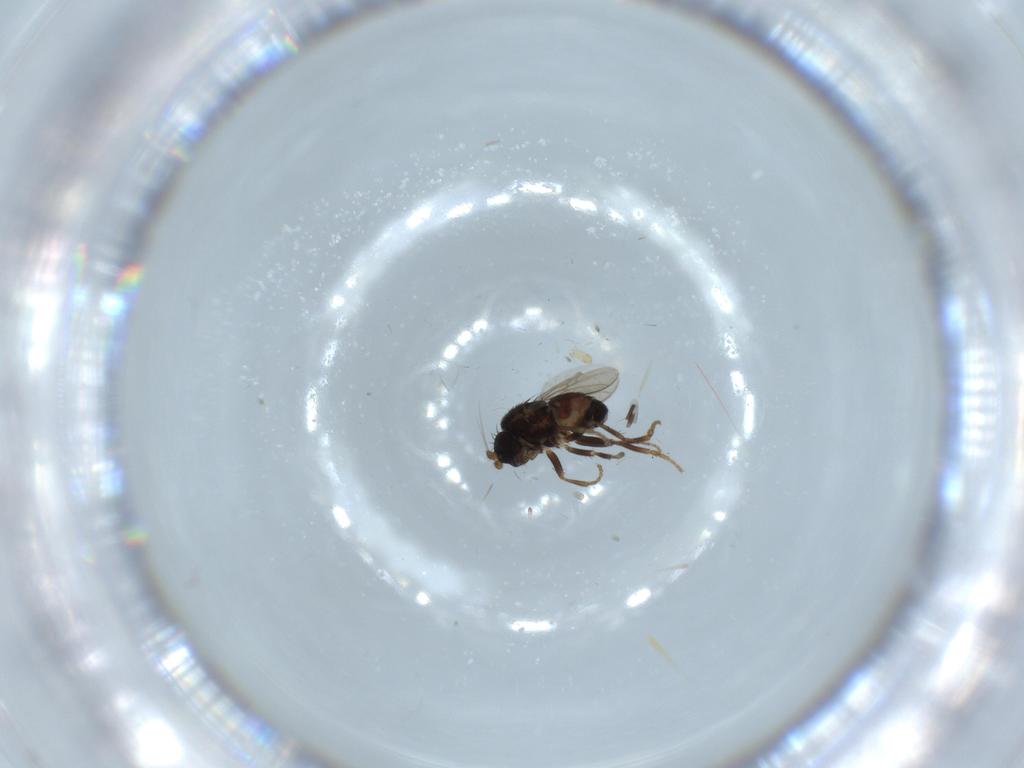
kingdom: Animalia
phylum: Arthropoda
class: Insecta
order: Diptera
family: Sphaeroceridae
